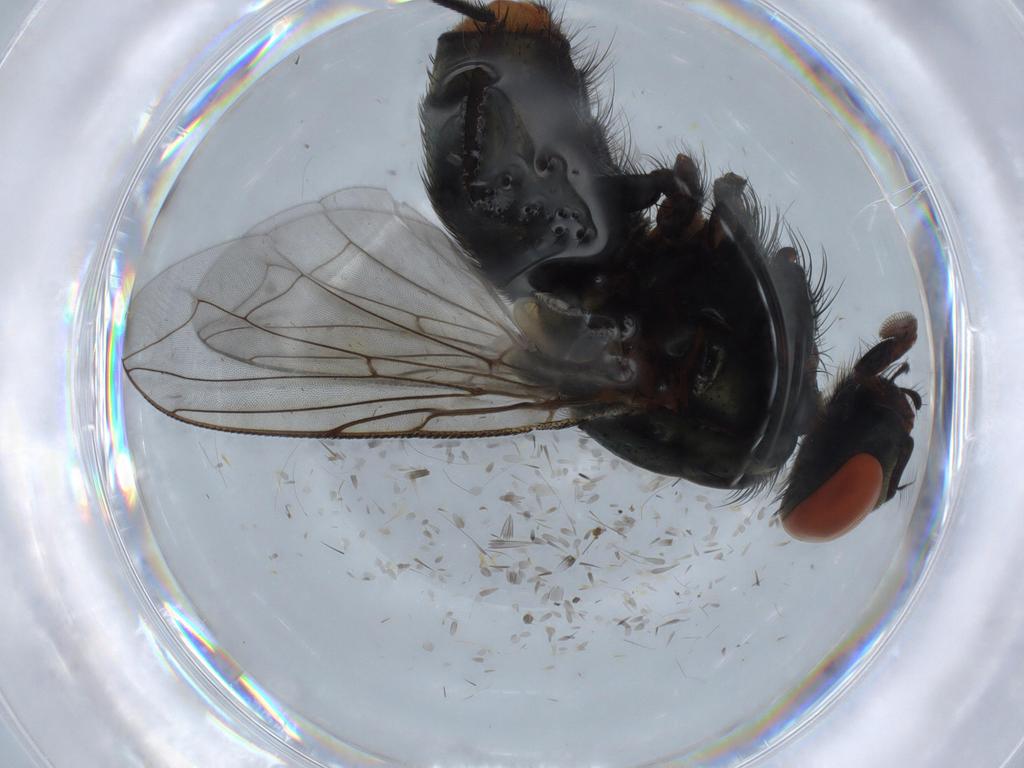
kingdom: Animalia
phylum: Arthropoda
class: Insecta
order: Diptera
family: Sarcophagidae
